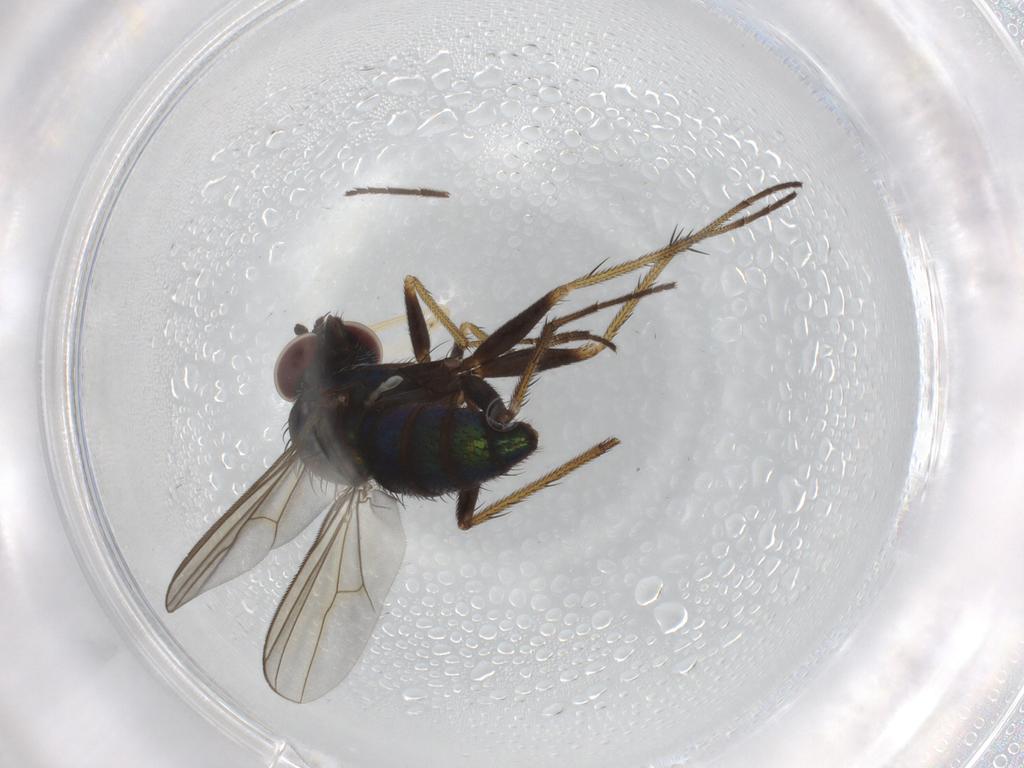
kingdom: Animalia
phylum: Arthropoda
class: Insecta
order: Diptera
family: Dolichopodidae
